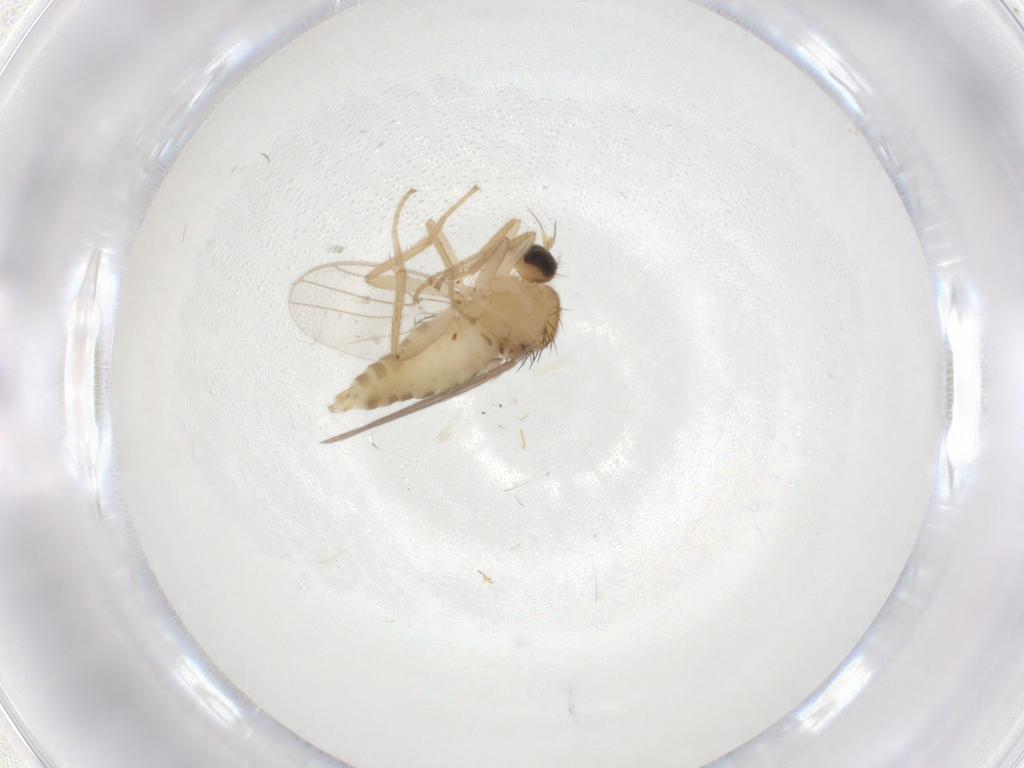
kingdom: Animalia
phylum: Arthropoda
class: Insecta
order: Diptera
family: Hybotidae
